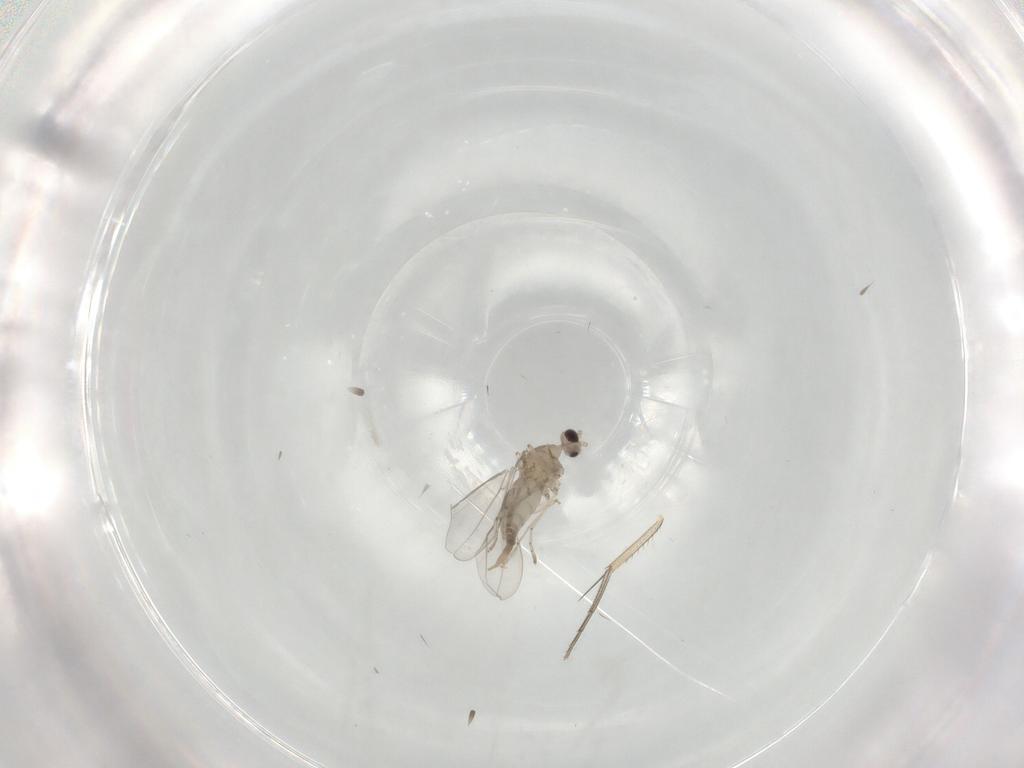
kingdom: Animalia
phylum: Arthropoda
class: Insecta
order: Diptera
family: Phoridae
